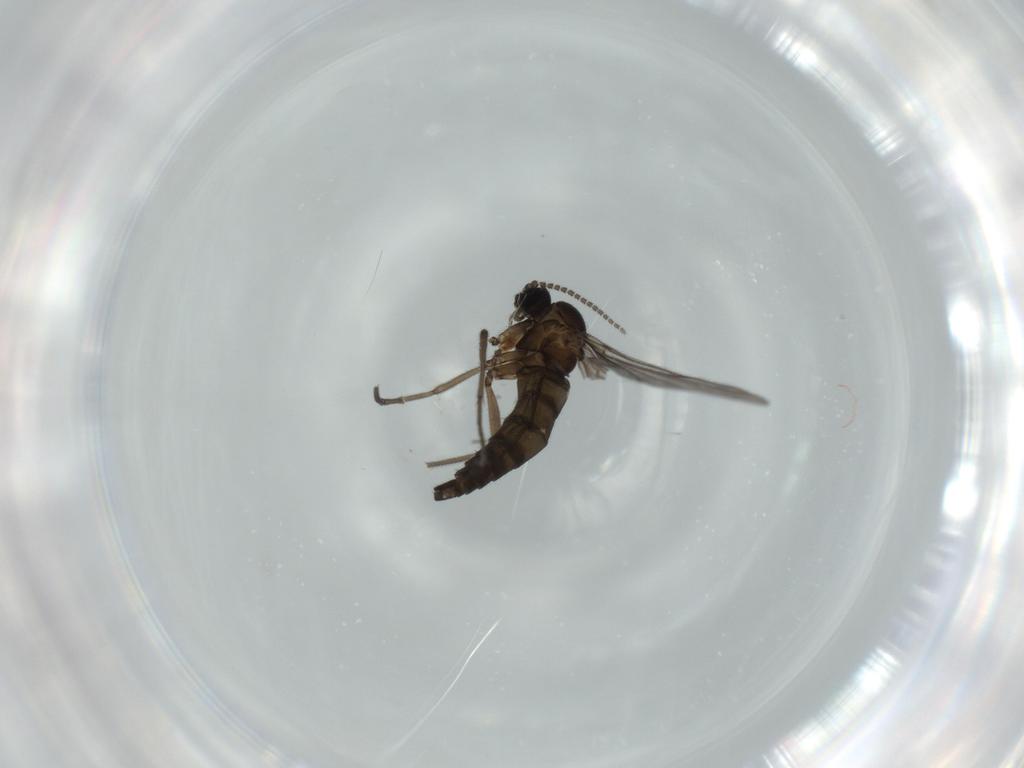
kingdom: Animalia
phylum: Arthropoda
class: Insecta
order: Diptera
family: Sciaridae
